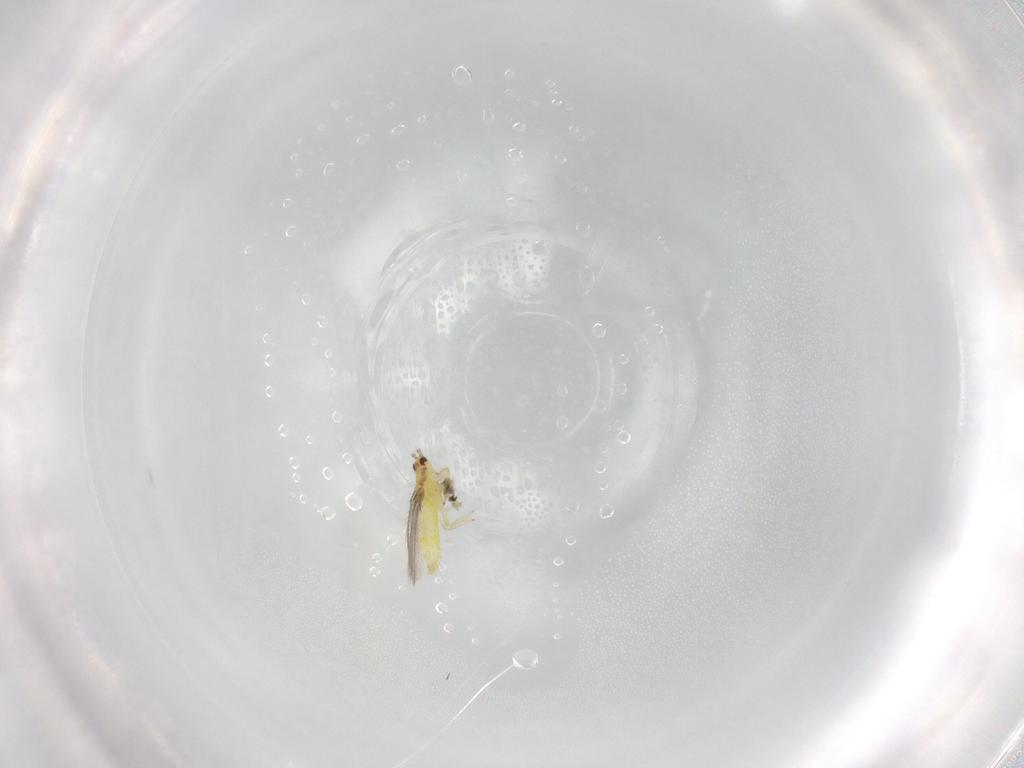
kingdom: Animalia
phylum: Arthropoda
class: Insecta
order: Thysanoptera
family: Thripidae
